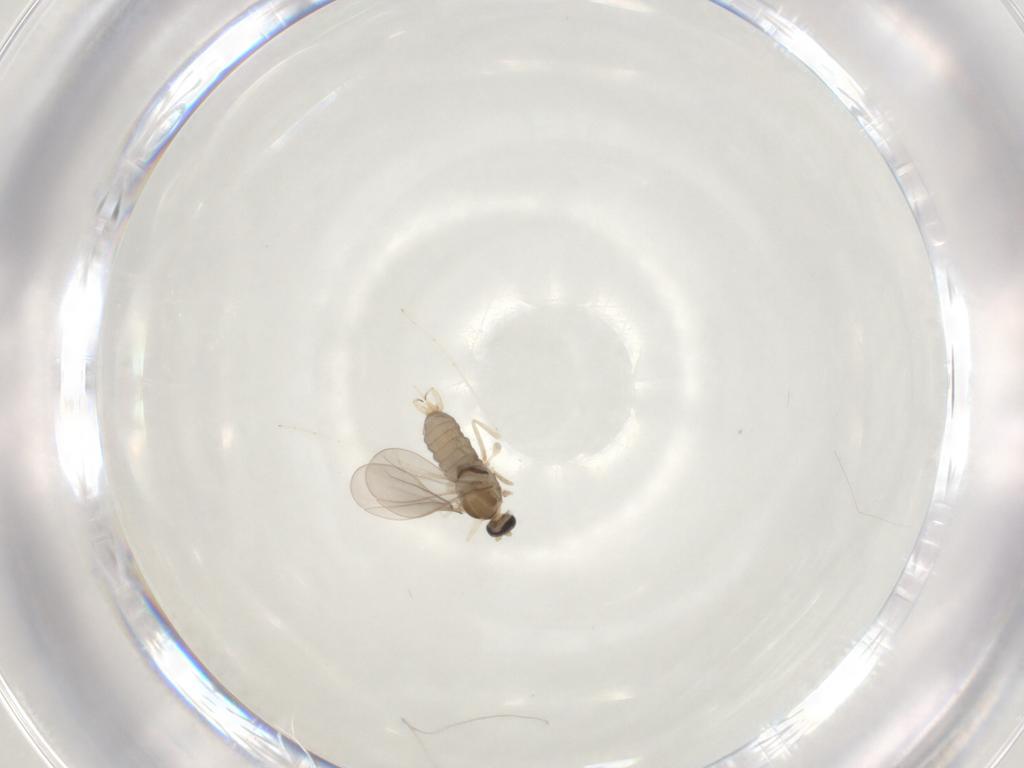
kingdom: Animalia
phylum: Arthropoda
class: Insecta
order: Diptera
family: Cecidomyiidae
